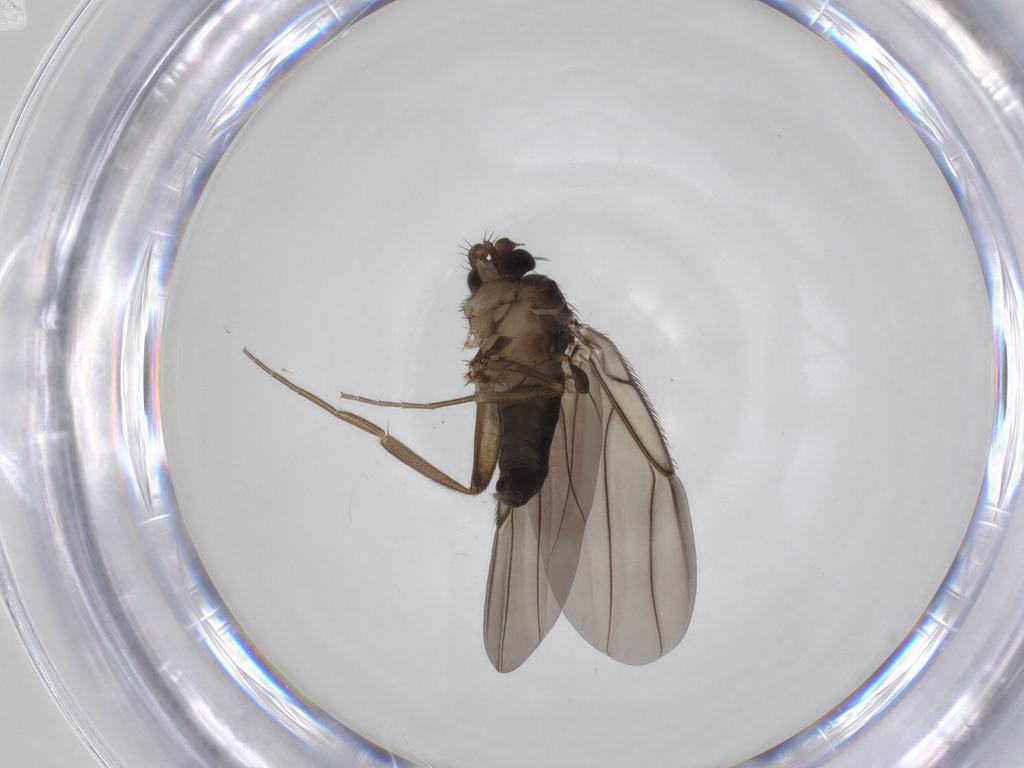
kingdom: Animalia
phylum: Arthropoda
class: Insecta
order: Diptera
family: Phoridae
